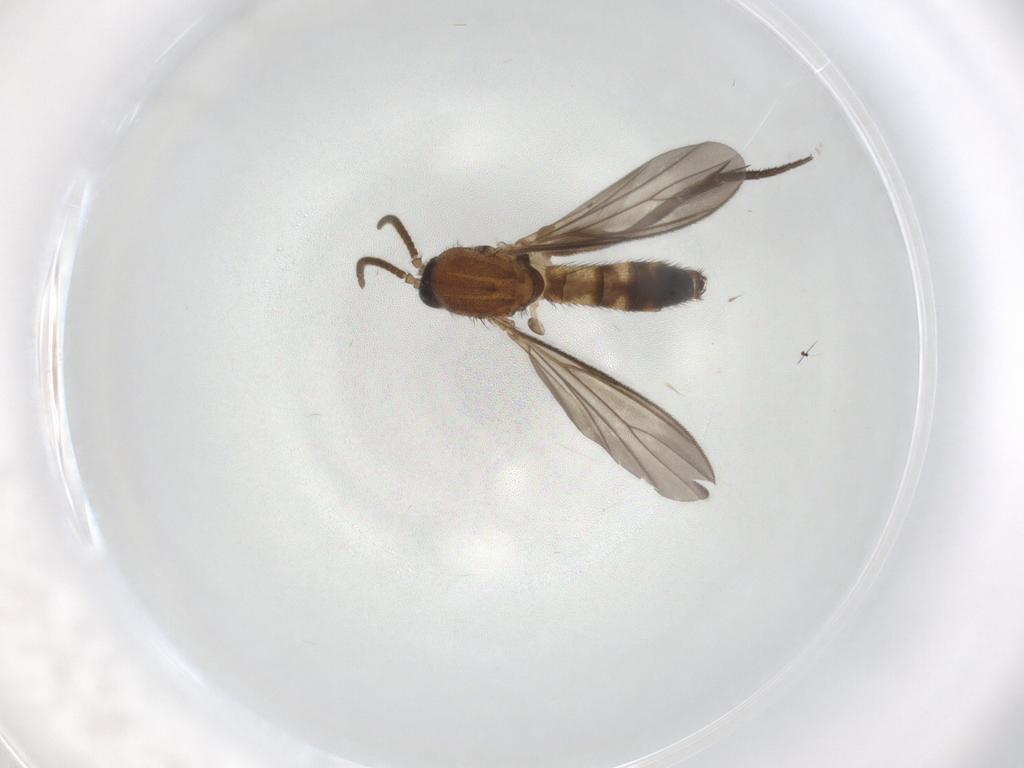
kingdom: Animalia
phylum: Arthropoda
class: Insecta
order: Diptera
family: Mycetophilidae
